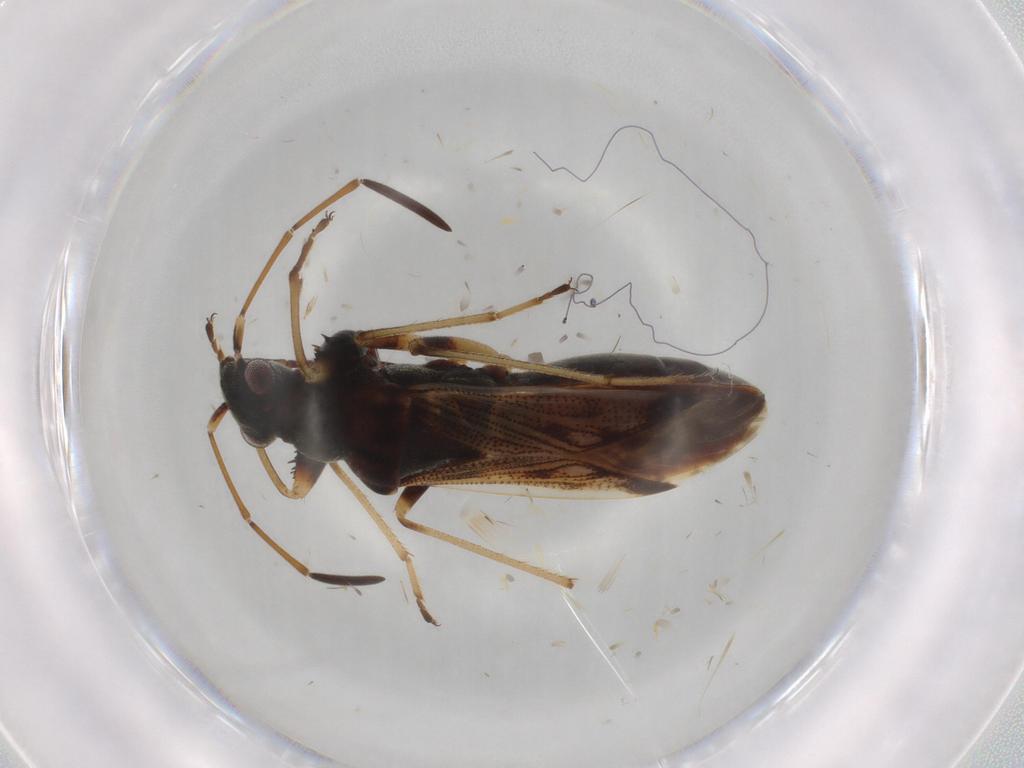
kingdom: Animalia
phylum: Arthropoda
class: Insecta
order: Hemiptera
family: Rhyparochromidae
